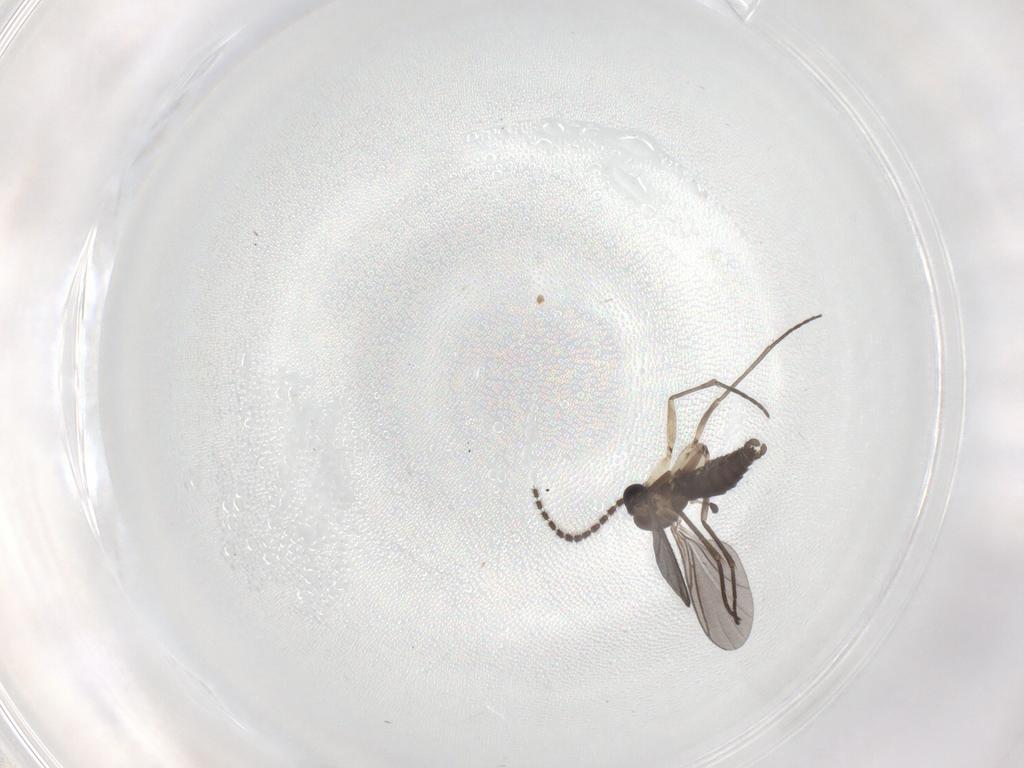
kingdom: Animalia
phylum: Arthropoda
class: Insecta
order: Diptera
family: Sciaridae
